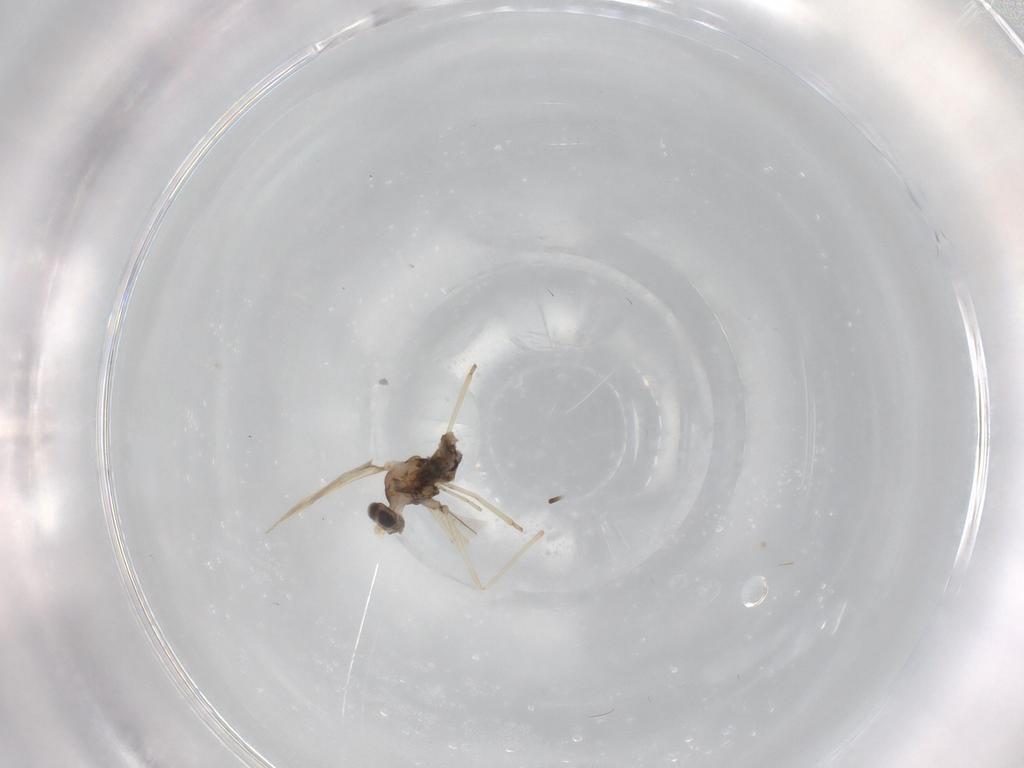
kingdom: Animalia
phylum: Arthropoda
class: Insecta
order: Diptera
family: Cecidomyiidae
